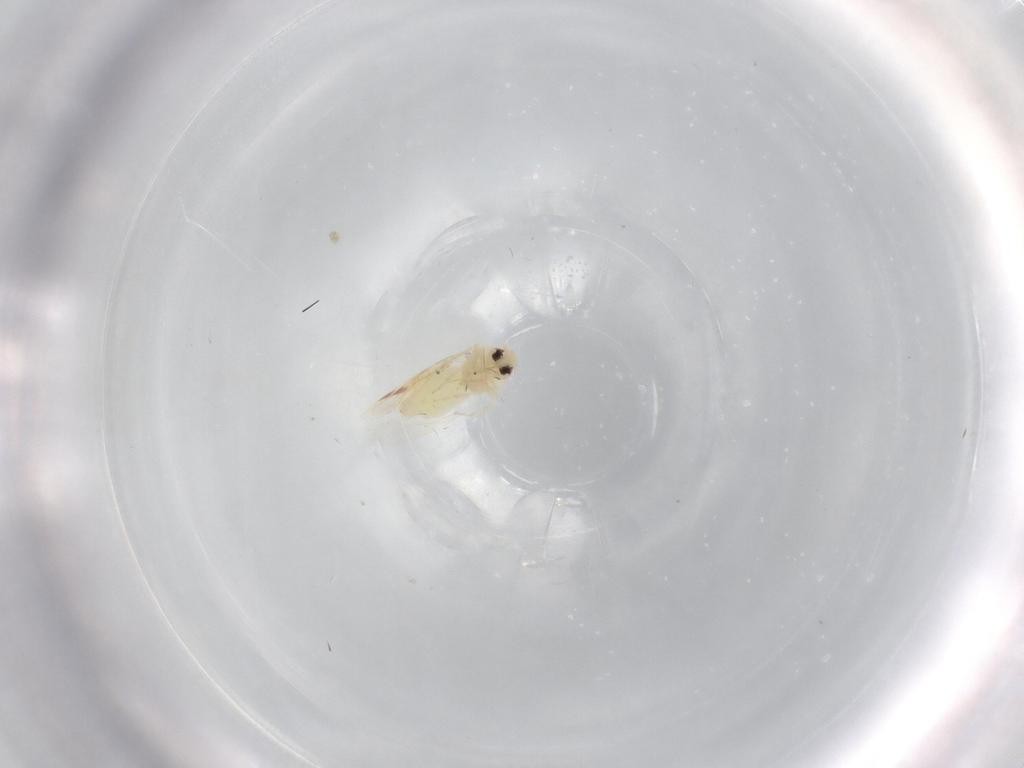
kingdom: Animalia
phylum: Arthropoda
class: Insecta
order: Hemiptera
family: Aleyrodidae
